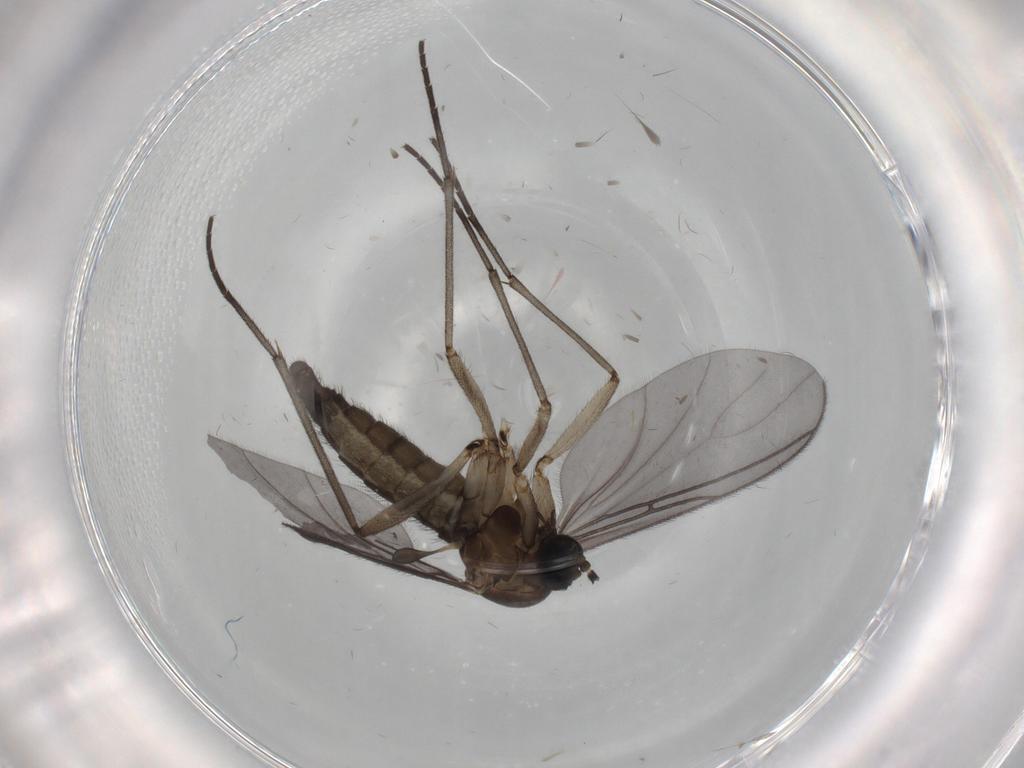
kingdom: Animalia
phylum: Arthropoda
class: Insecta
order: Diptera
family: Sciaridae
